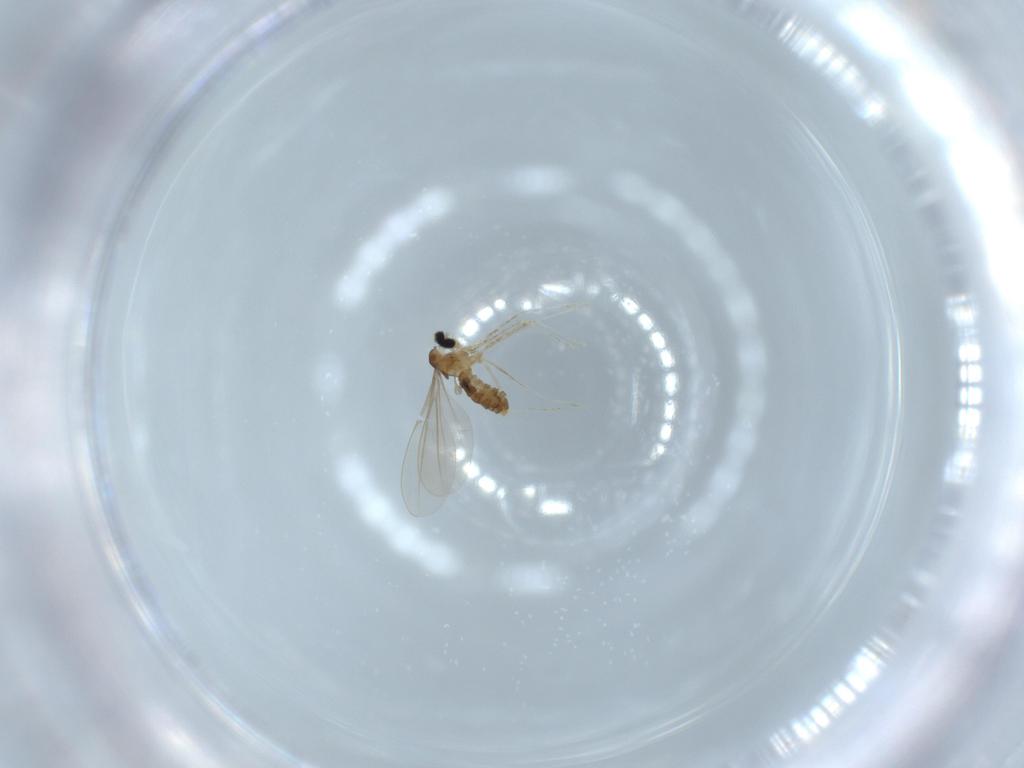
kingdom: Animalia
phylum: Arthropoda
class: Insecta
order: Diptera
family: Cecidomyiidae
